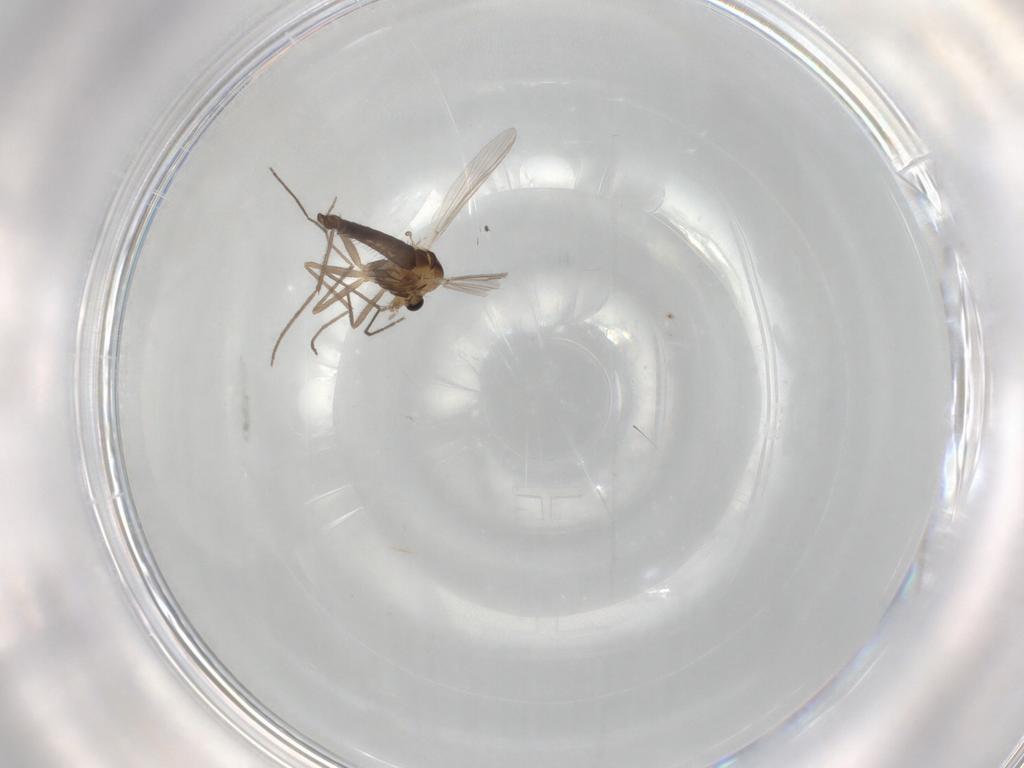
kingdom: Animalia
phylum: Arthropoda
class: Insecta
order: Diptera
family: Chironomidae
